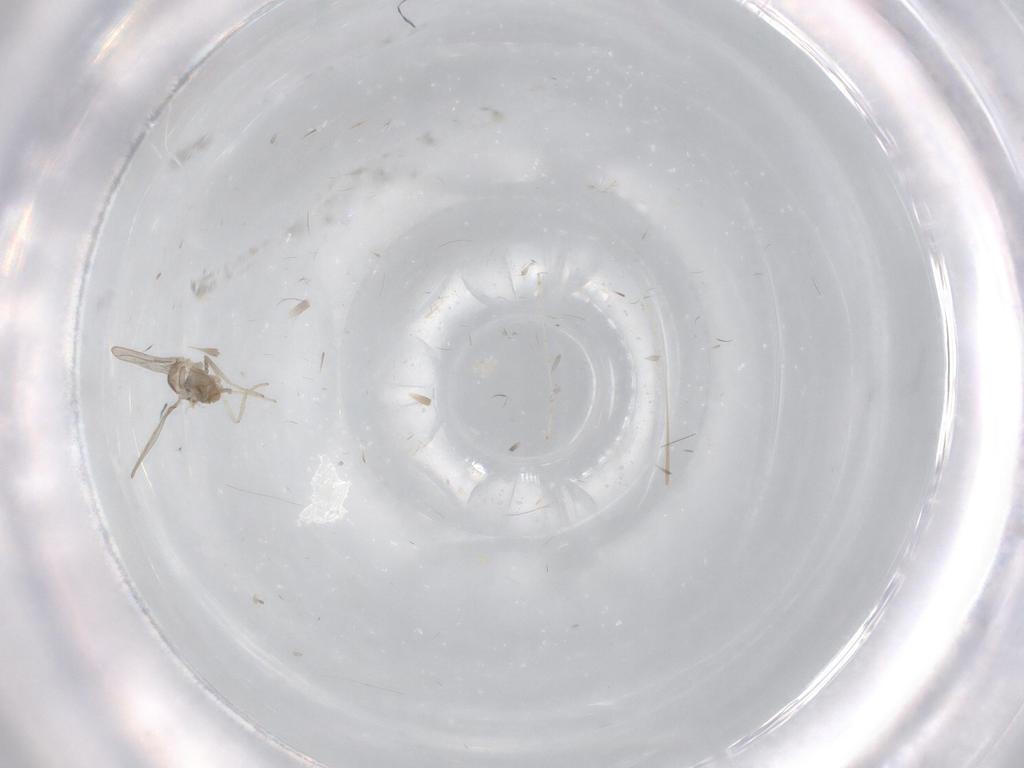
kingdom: Animalia
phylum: Arthropoda
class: Insecta
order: Diptera
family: Cecidomyiidae
